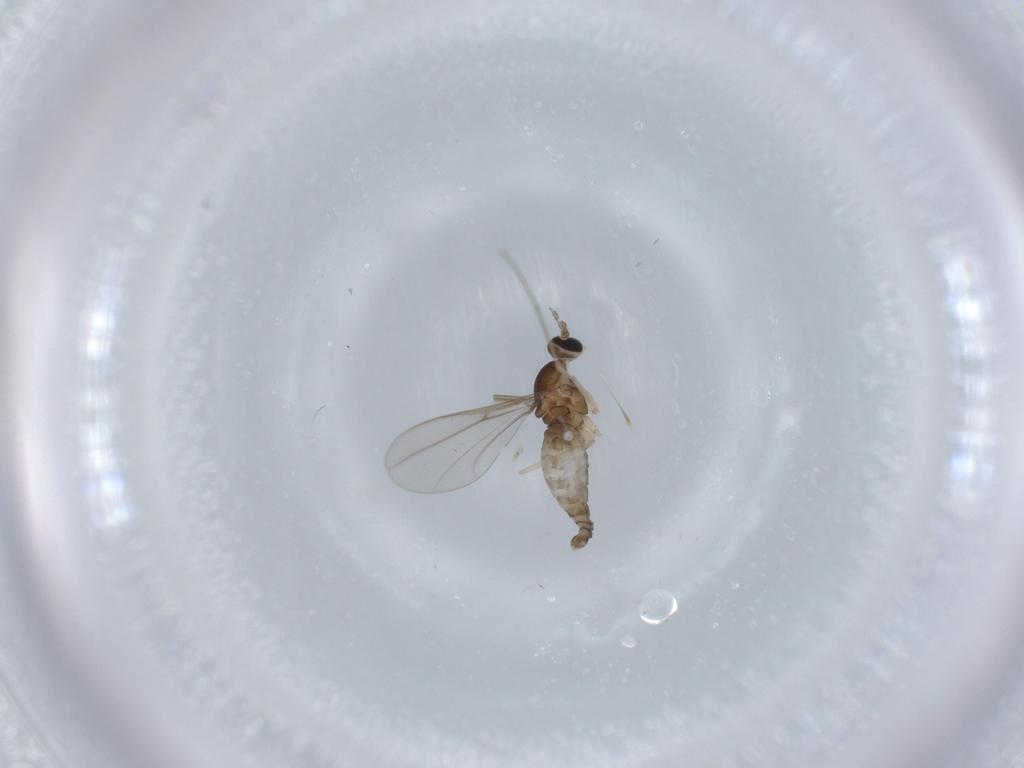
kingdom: Animalia
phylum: Arthropoda
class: Insecta
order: Diptera
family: Cecidomyiidae
